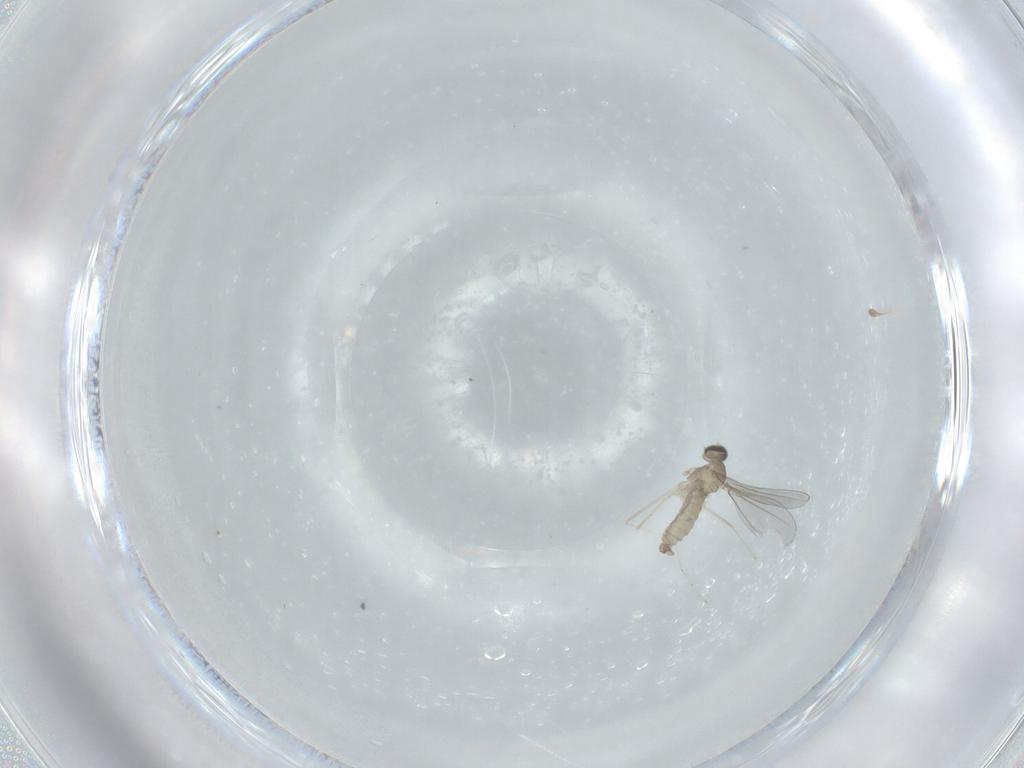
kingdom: Animalia
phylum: Arthropoda
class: Insecta
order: Diptera
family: Cecidomyiidae
